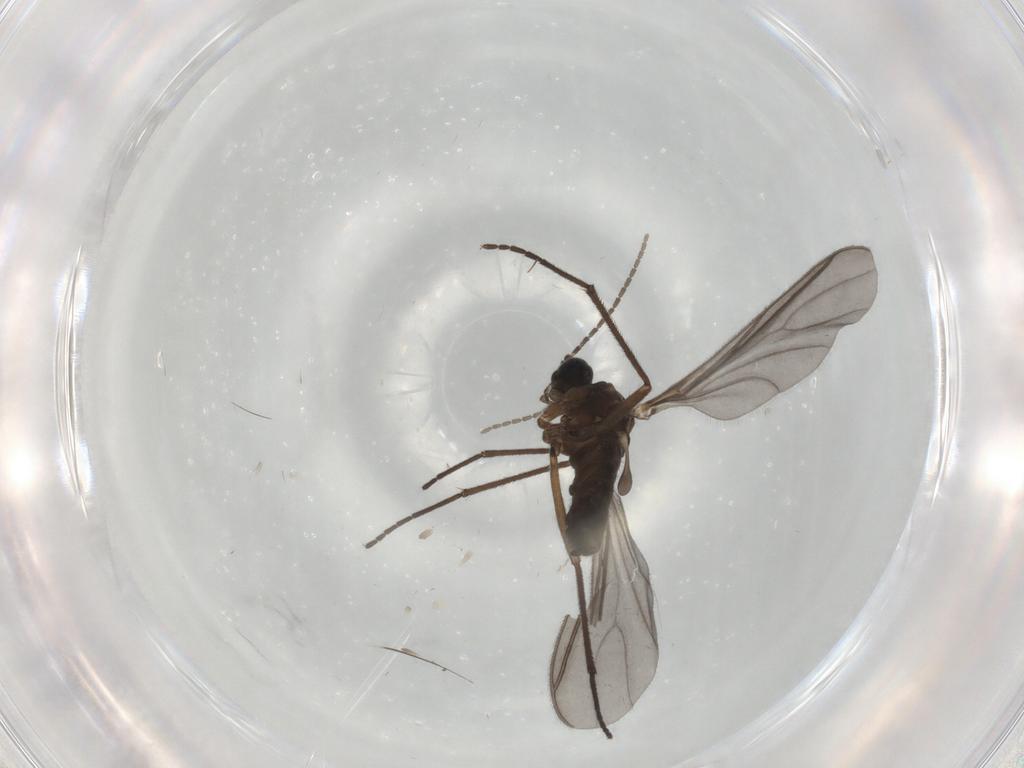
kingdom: Animalia
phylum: Arthropoda
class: Insecta
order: Diptera
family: Sciaridae
